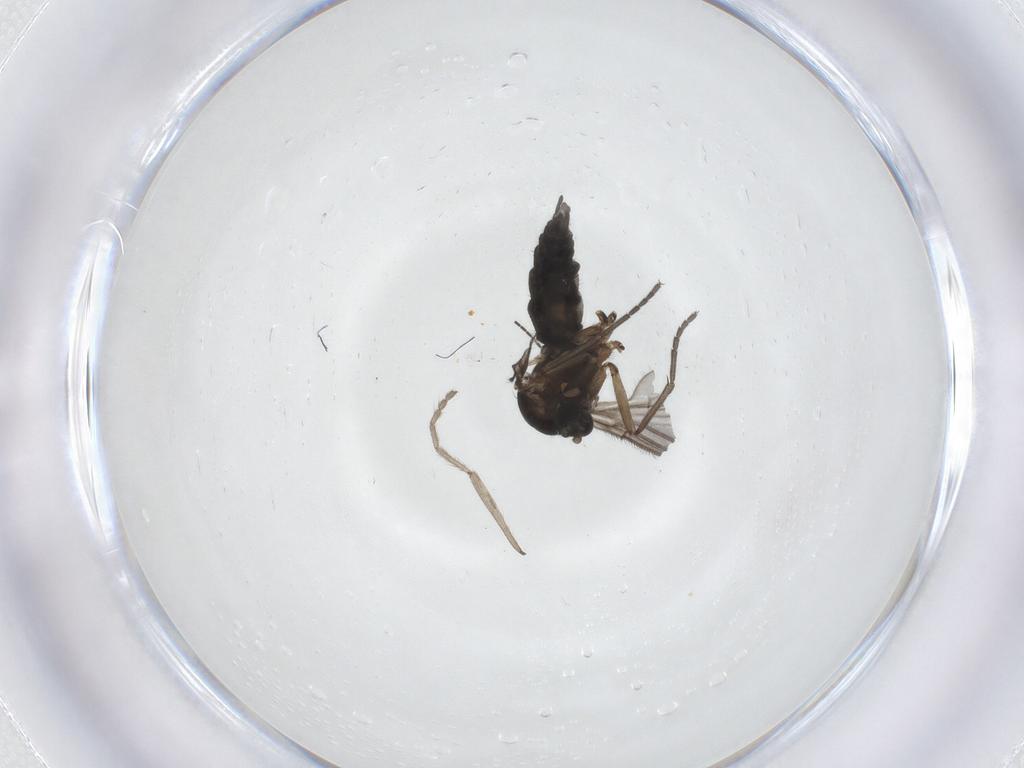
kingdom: Animalia
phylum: Arthropoda
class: Insecta
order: Diptera
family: Sciaridae
